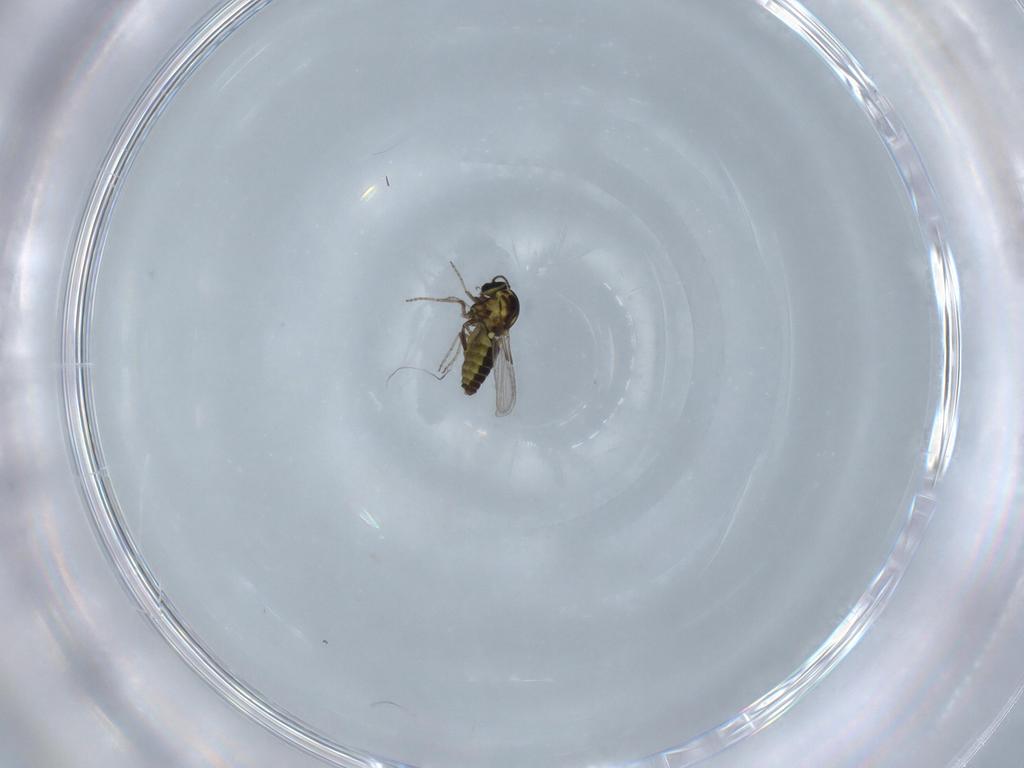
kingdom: Animalia
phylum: Arthropoda
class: Insecta
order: Diptera
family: Ceratopogonidae
